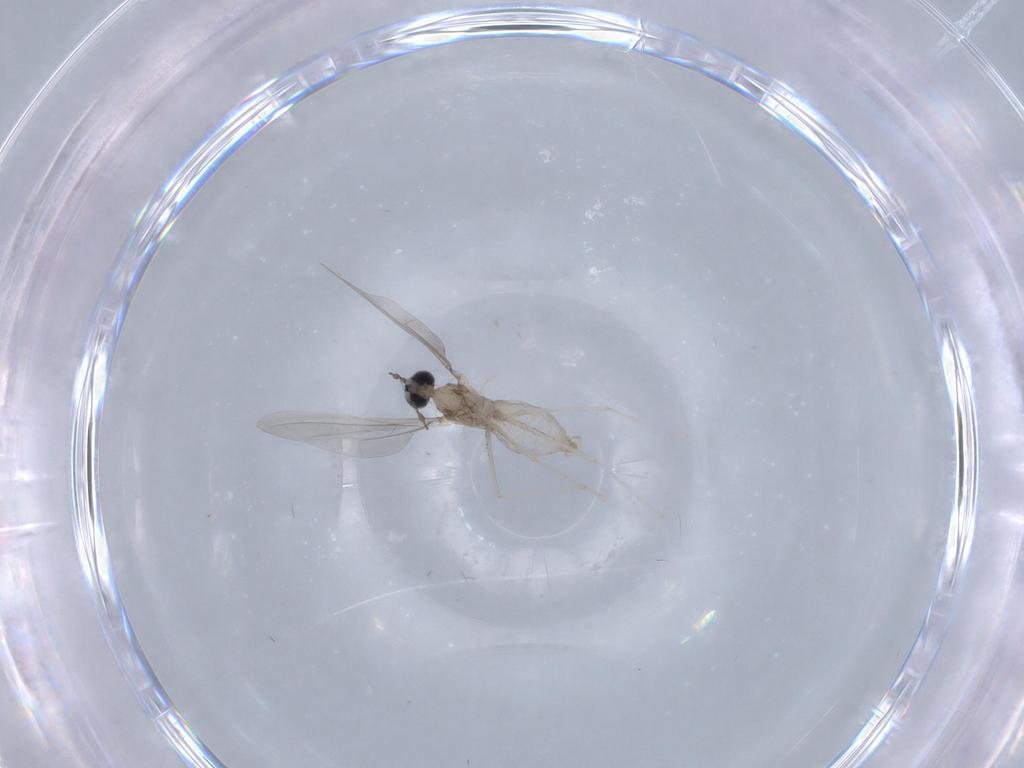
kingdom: Animalia
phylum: Arthropoda
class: Insecta
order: Diptera
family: Cecidomyiidae
